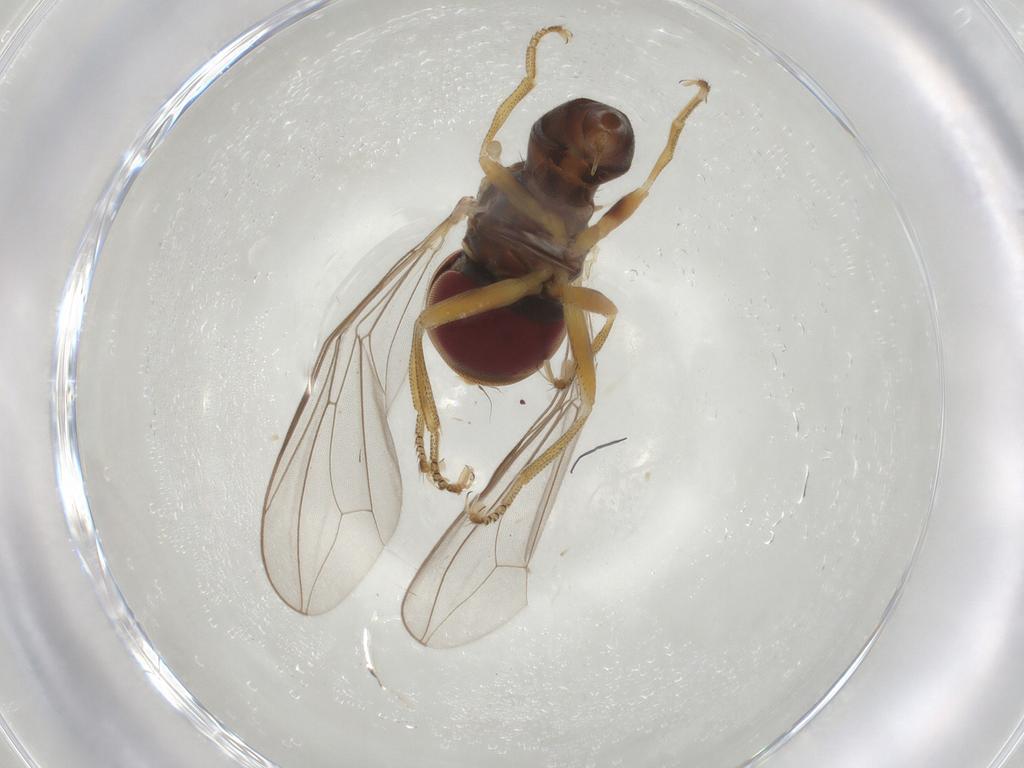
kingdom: Animalia
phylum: Arthropoda
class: Insecta
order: Diptera
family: Pipunculidae
